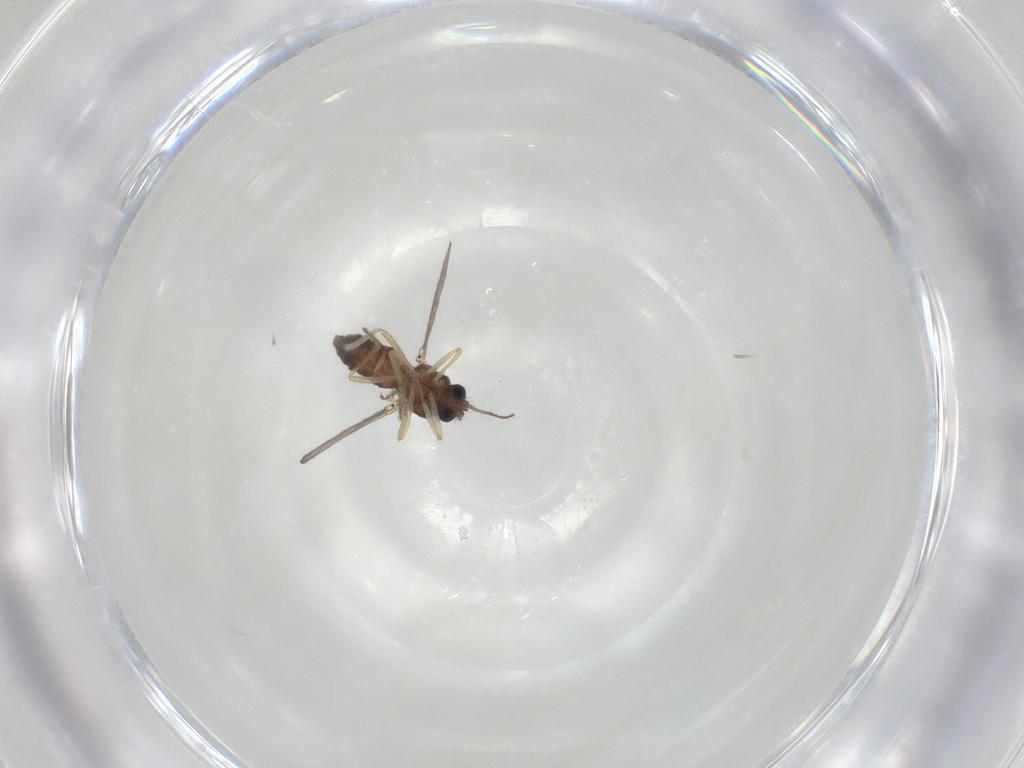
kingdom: Animalia
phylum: Arthropoda
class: Insecta
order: Diptera
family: Ceratopogonidae
